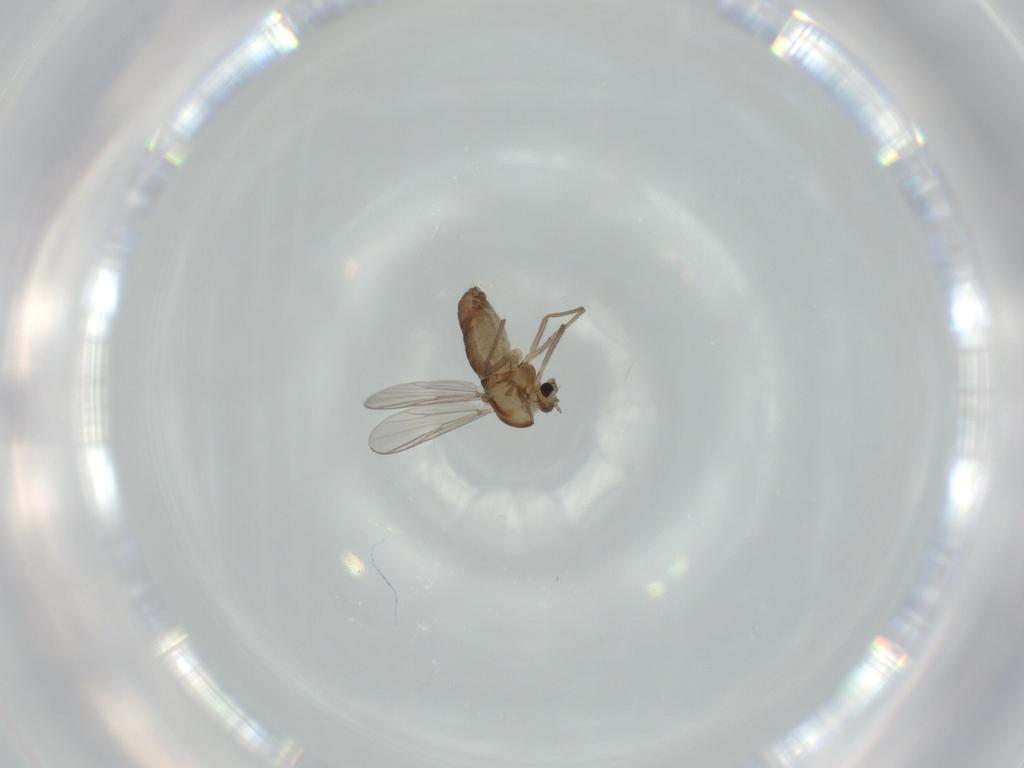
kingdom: Animalia
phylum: Arthropoda
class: Insecta
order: Diptera
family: Chironomidae
